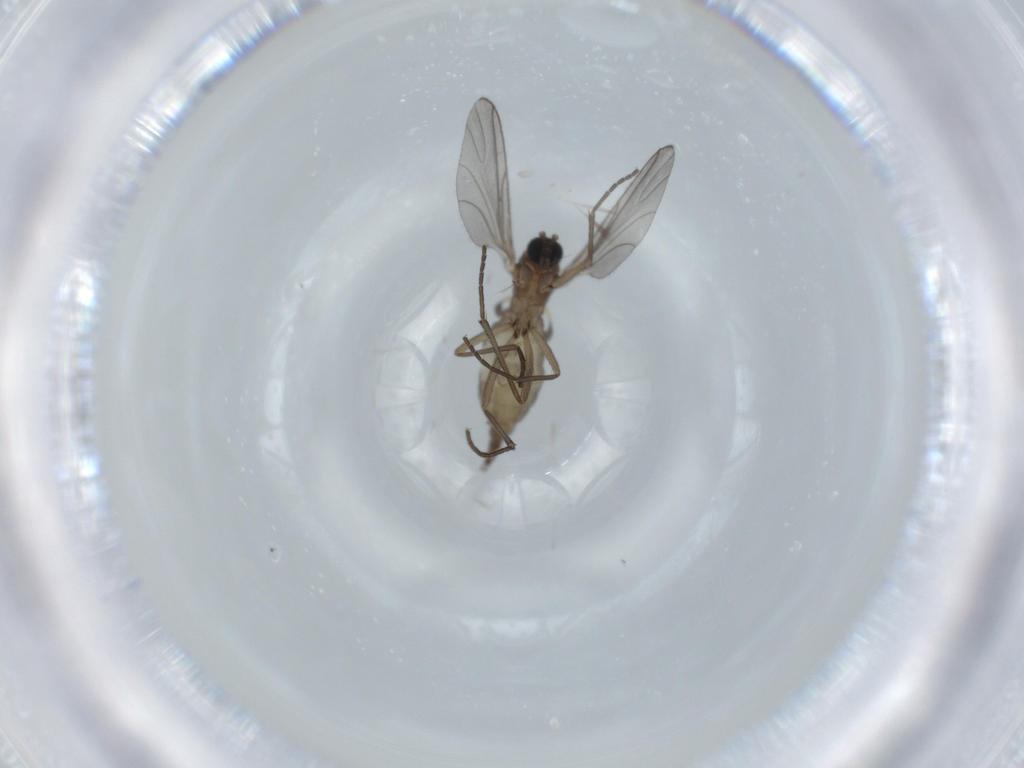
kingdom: Animalia
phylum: Arthropoda
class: Insecta
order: Diptera
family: Sciaridae
